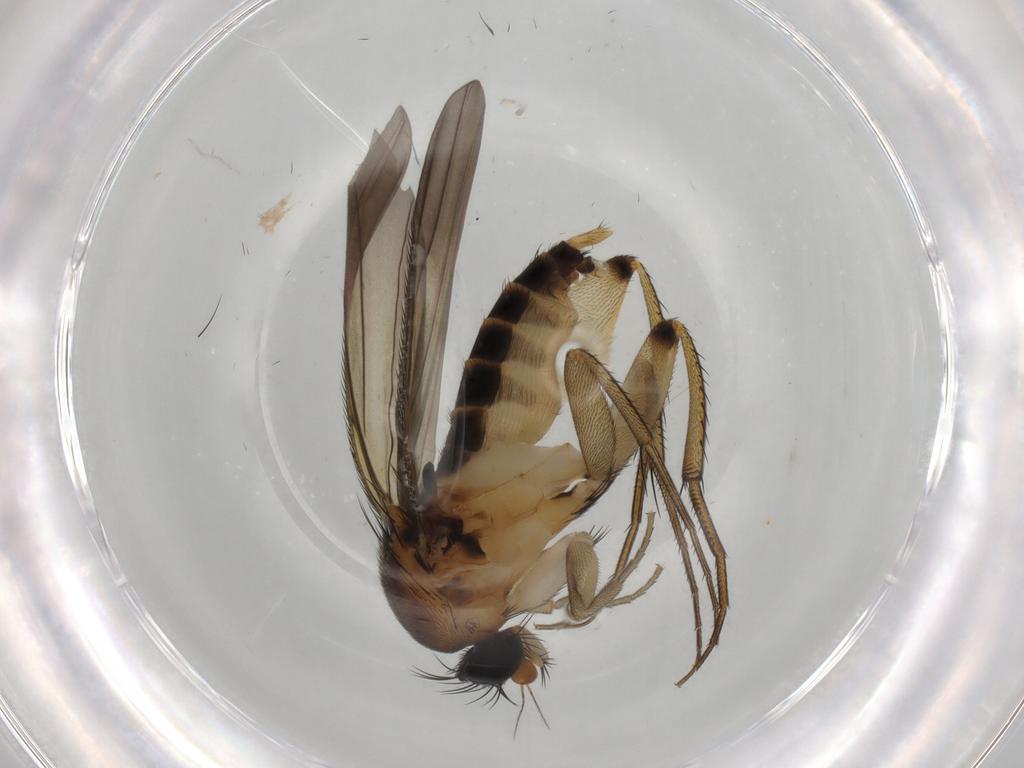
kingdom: Animalia
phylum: Arthropoda
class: Insecta
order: Diptera
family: Phoridae
